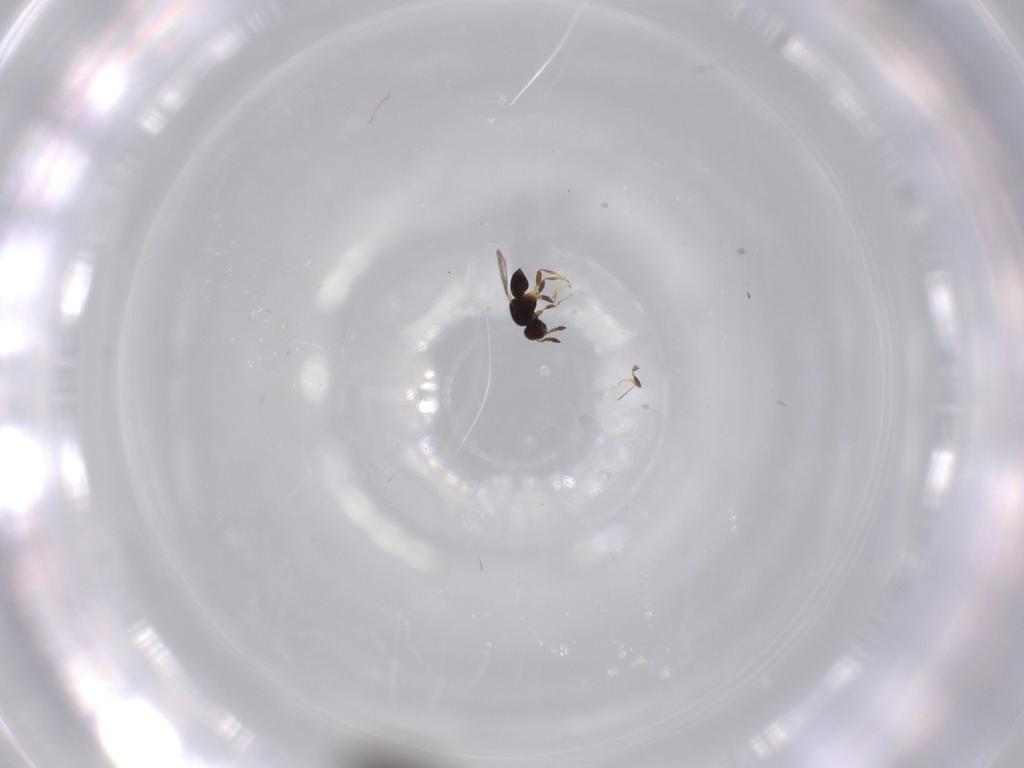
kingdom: Animalia
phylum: Arthropoda
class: Insecta
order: Hymenoptera
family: Proctotrupidae
